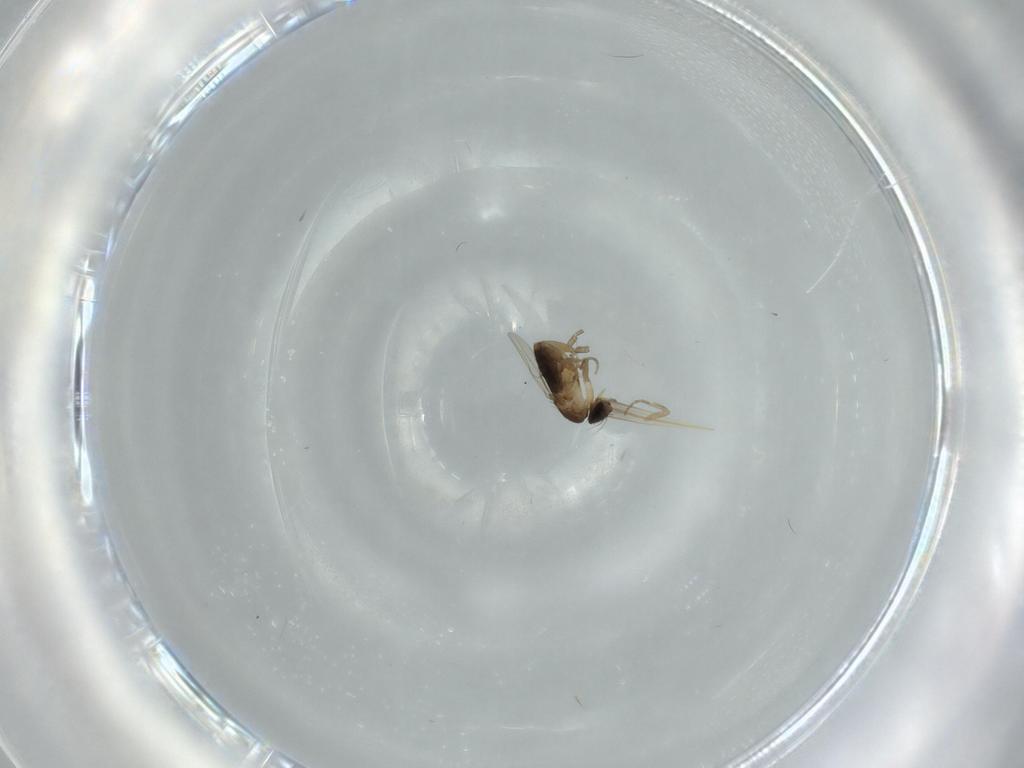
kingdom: Animalia
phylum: Arthropoda
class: Insecta
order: Diptera
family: Phoridae
